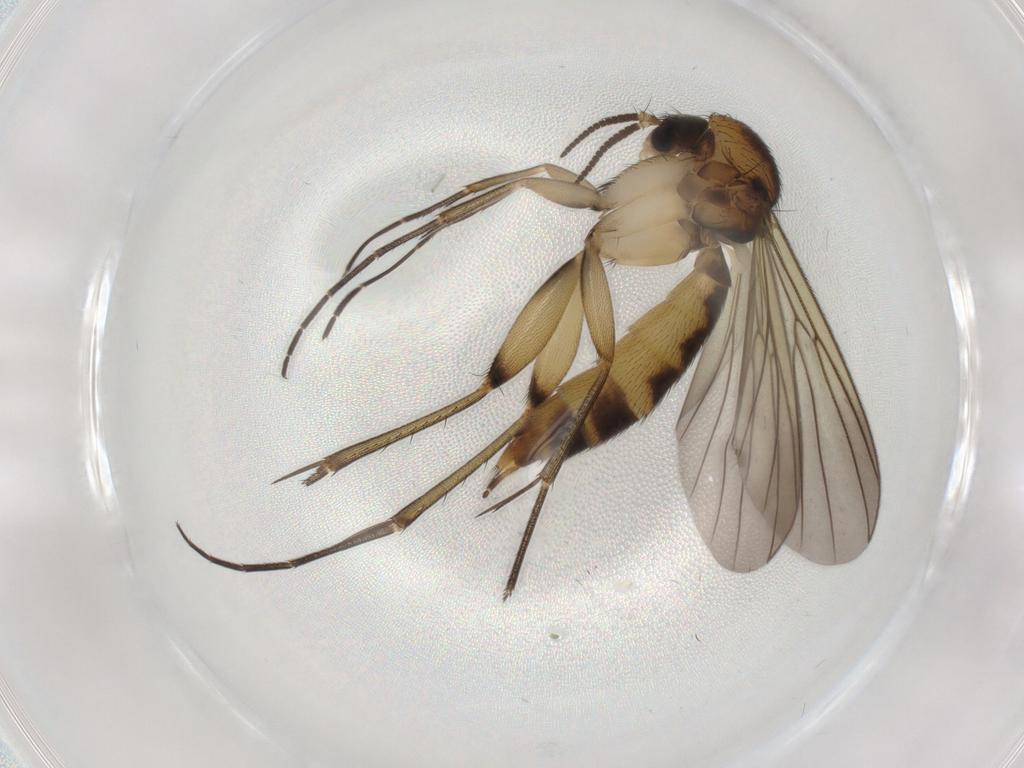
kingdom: Animalia
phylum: Arthropoda
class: Insecta
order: Diptera
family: Mycetophilidae
